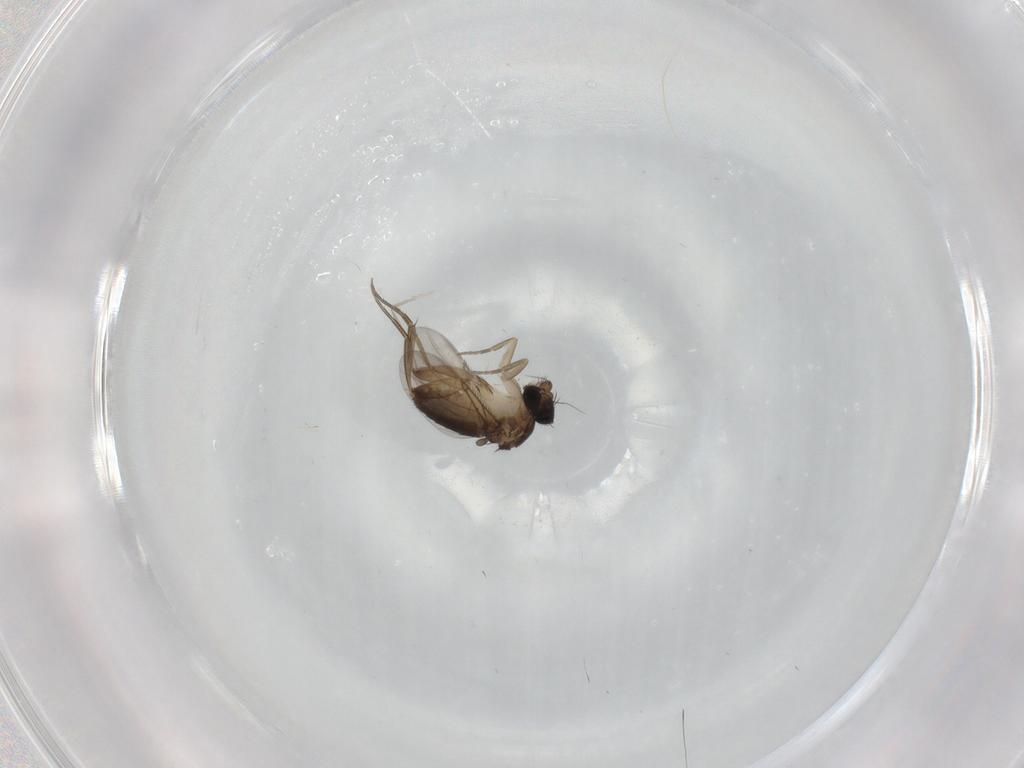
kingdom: Animalia
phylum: Arthropoda
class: Insecta
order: Diptera
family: Phoridae
